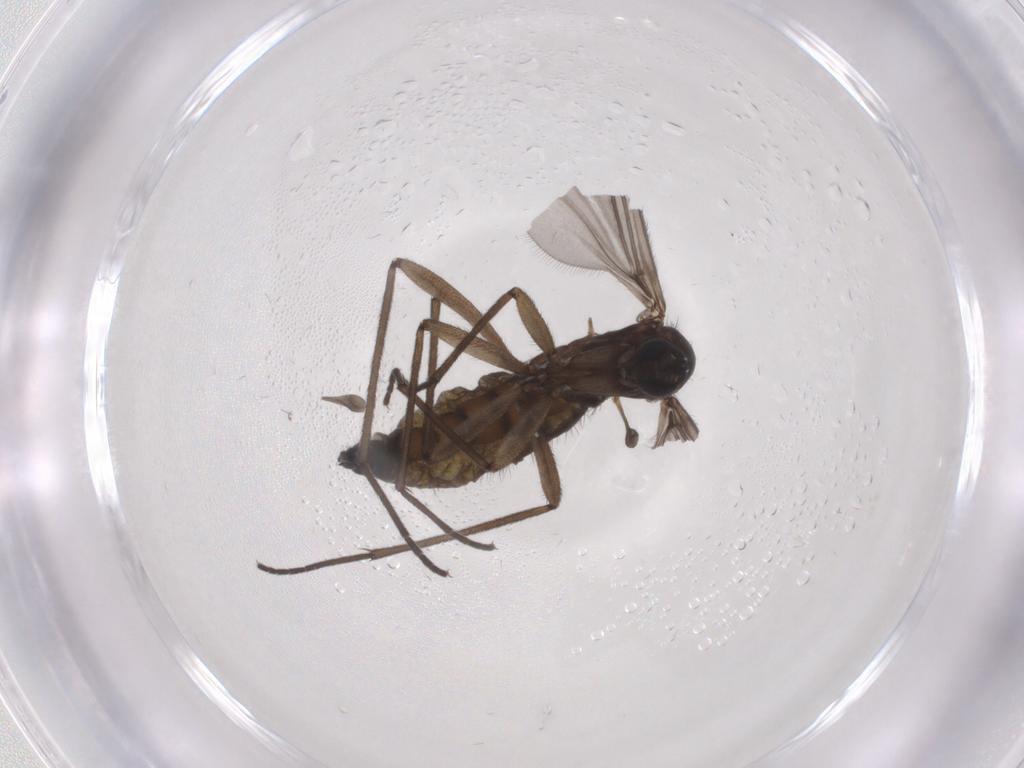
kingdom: Animalia
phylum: Arthropoda
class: Insecta
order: Diptera
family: Sciaridae
